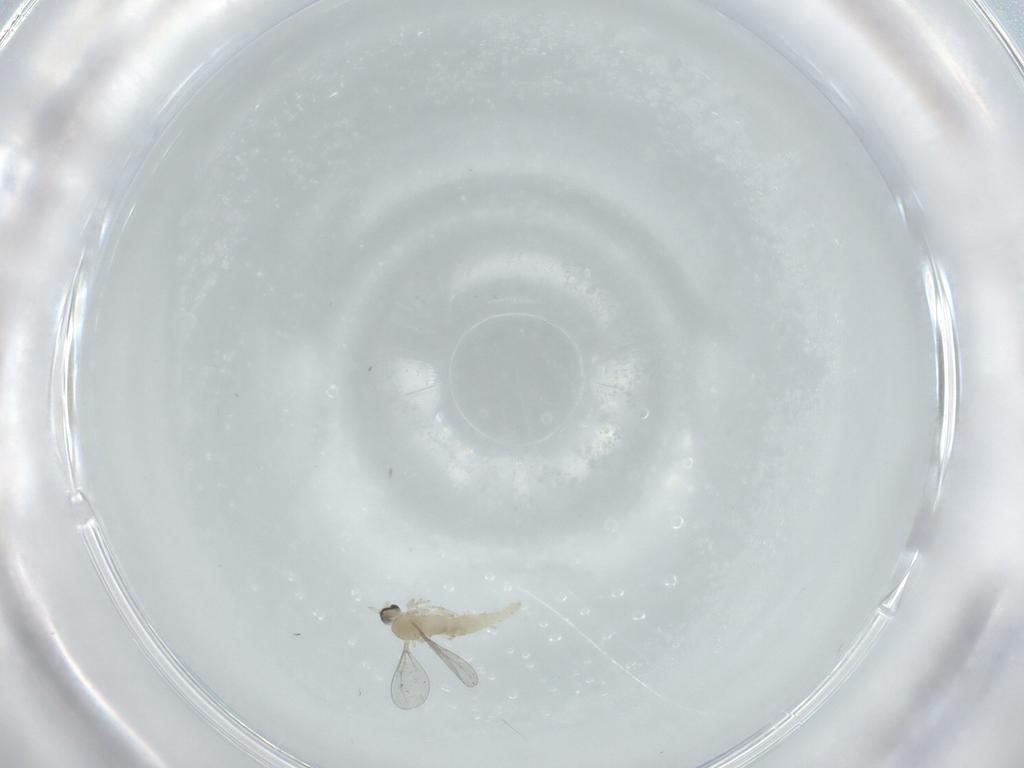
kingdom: Animalia
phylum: Arthropoda
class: Insecta
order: Diptera
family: Cecidomyiidae
